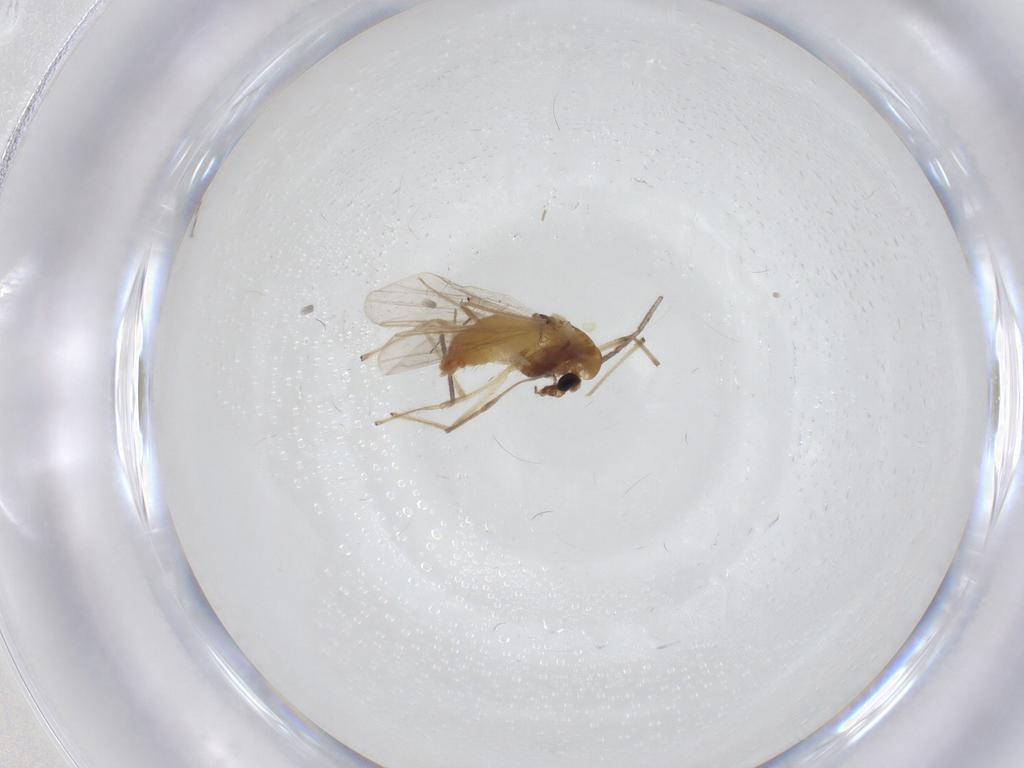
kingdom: Animalia
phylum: Arthropoda
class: Insecta
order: Diptera
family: Chironomidae
